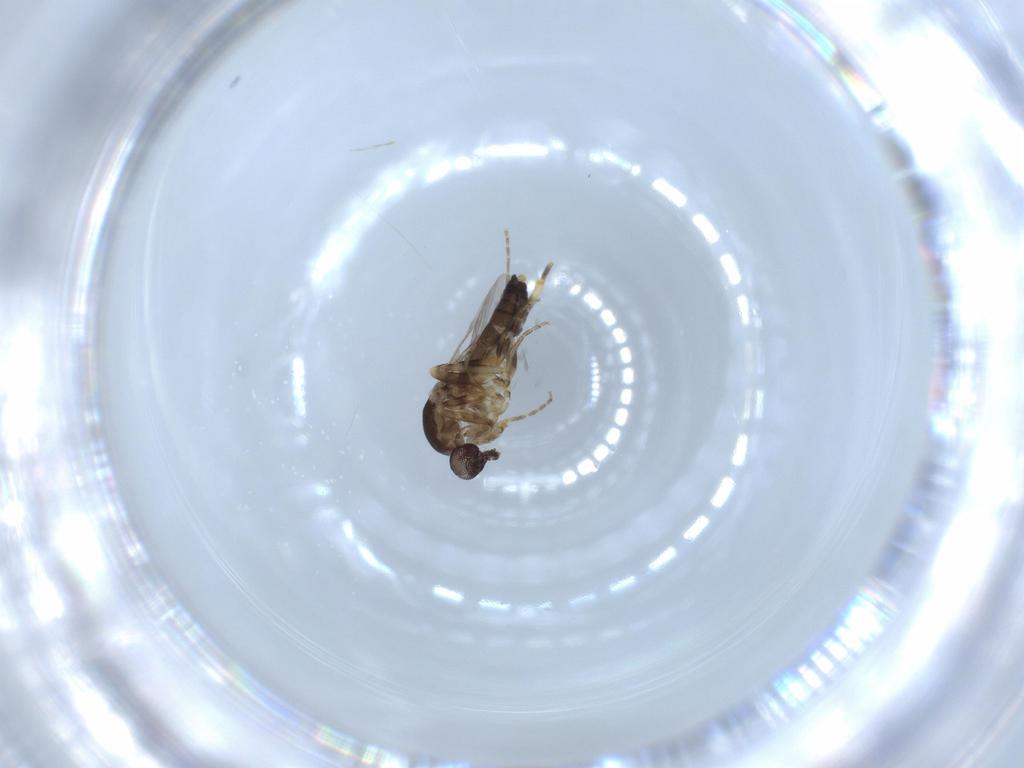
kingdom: Animalia
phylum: Arthropoda
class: Insecta
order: Diptera
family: Ceratopogonidae
